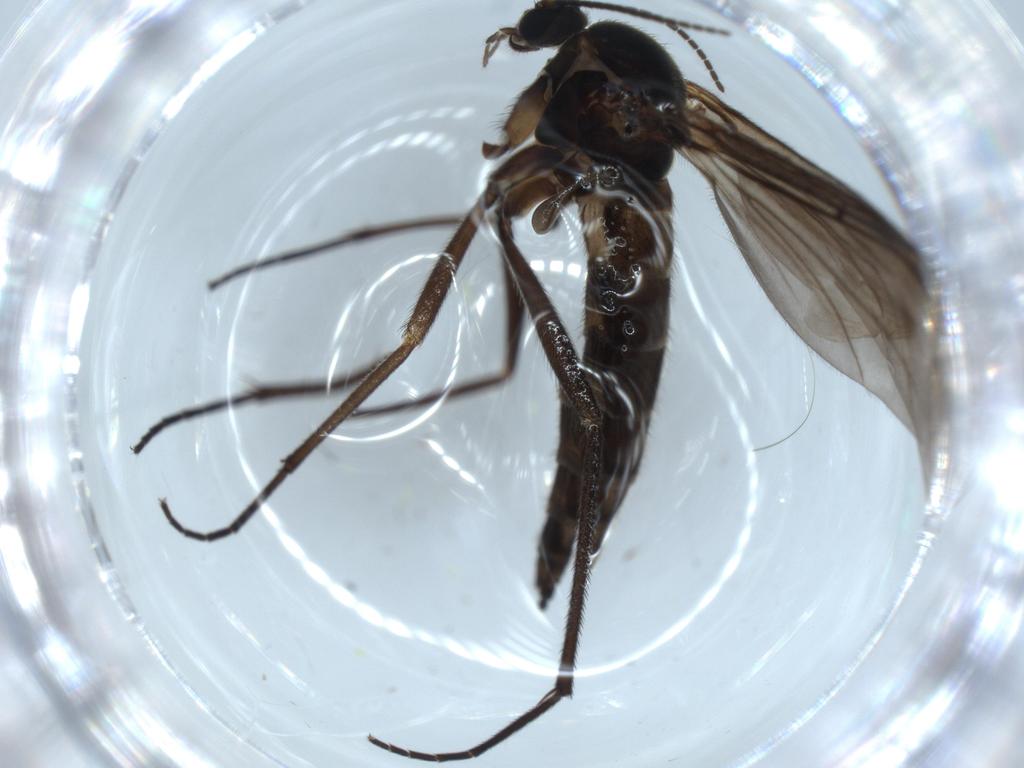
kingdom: Animalia
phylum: Arthropoda
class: Insecta
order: Diptera
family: Sciaridae
